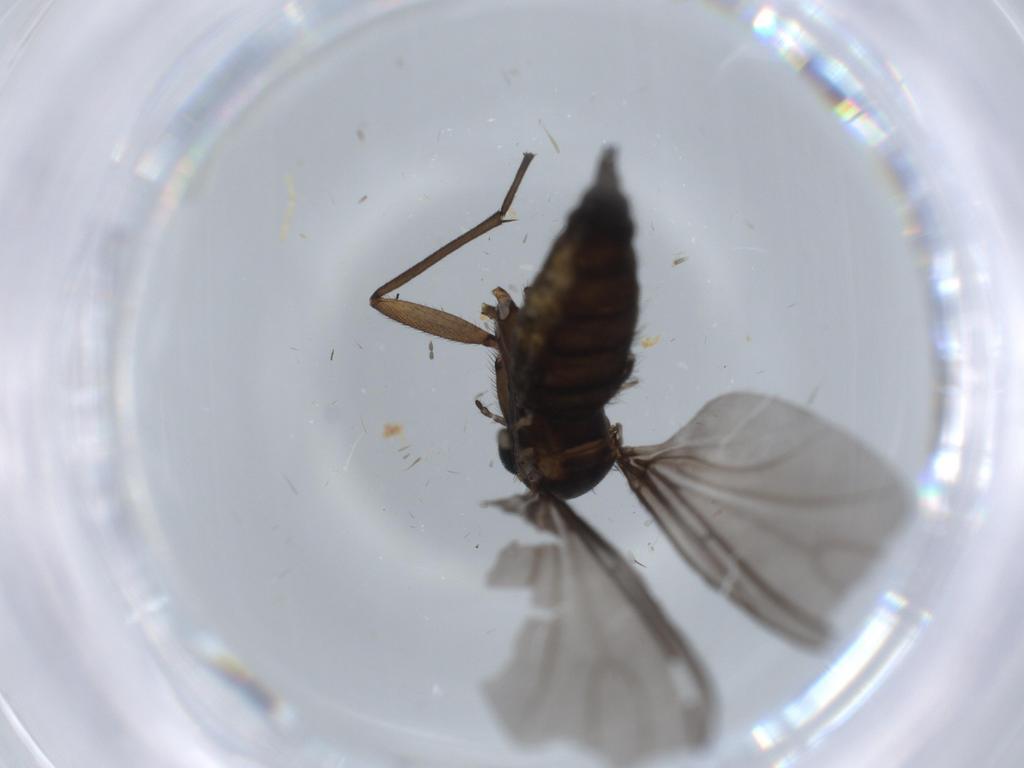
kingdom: Animalia
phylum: Arthropoda
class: Insecta
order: Diptera
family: Sciaridae
